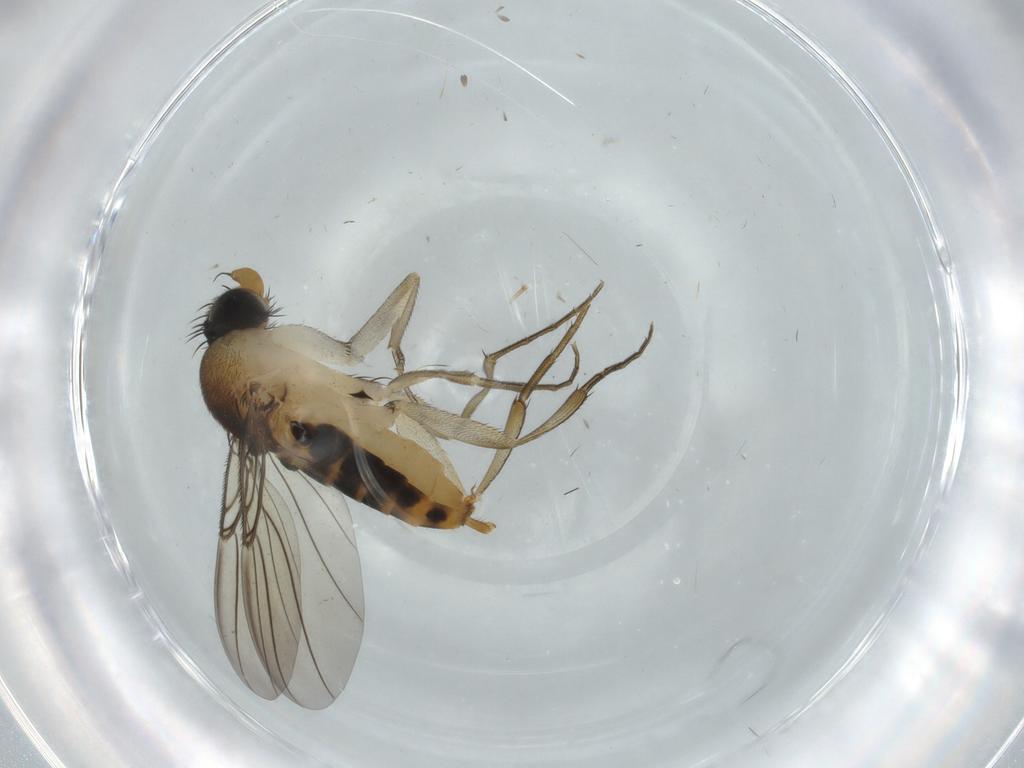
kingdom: Animalia
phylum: Arthropoda
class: Insecta
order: Diptera
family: Phoridae
